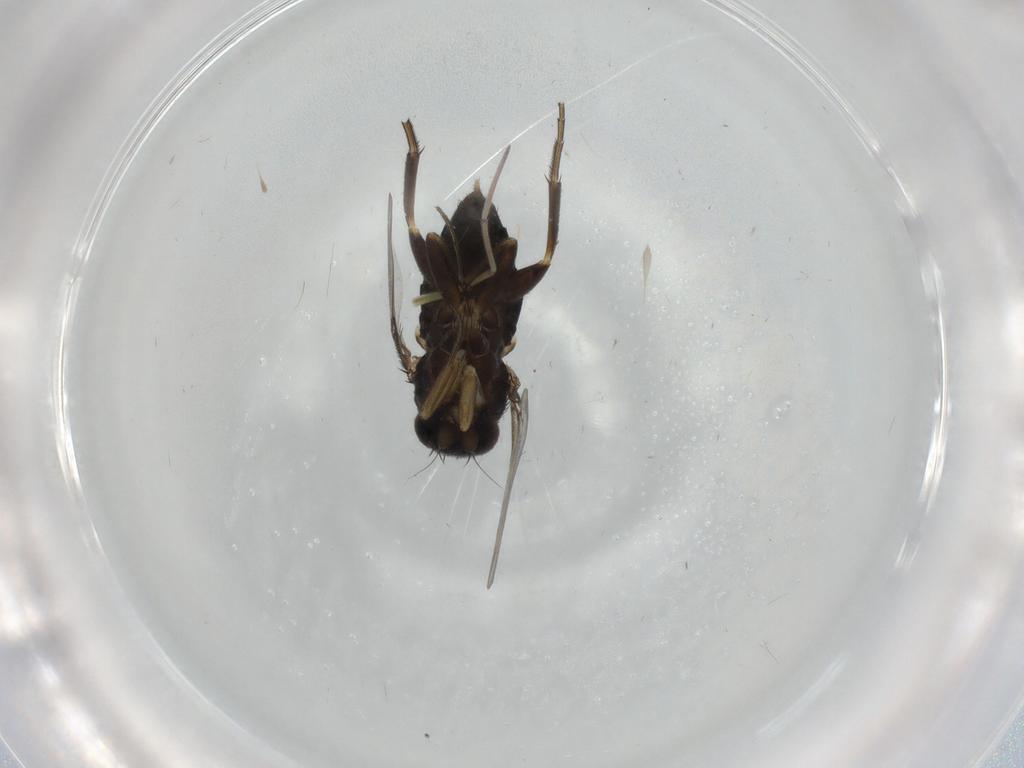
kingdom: Animalia
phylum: Arthropoda
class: Insecta
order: Diptera
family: Phoridae
